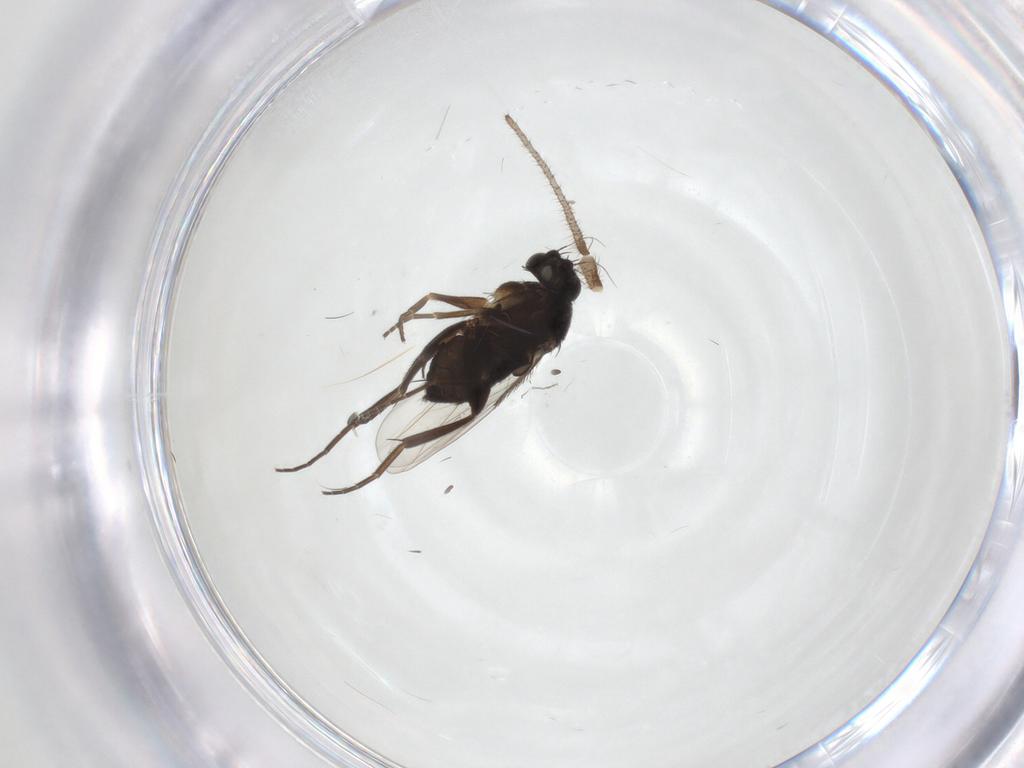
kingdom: Animalia
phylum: Arthropoda
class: Insecta
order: Diptera
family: Phoridae
